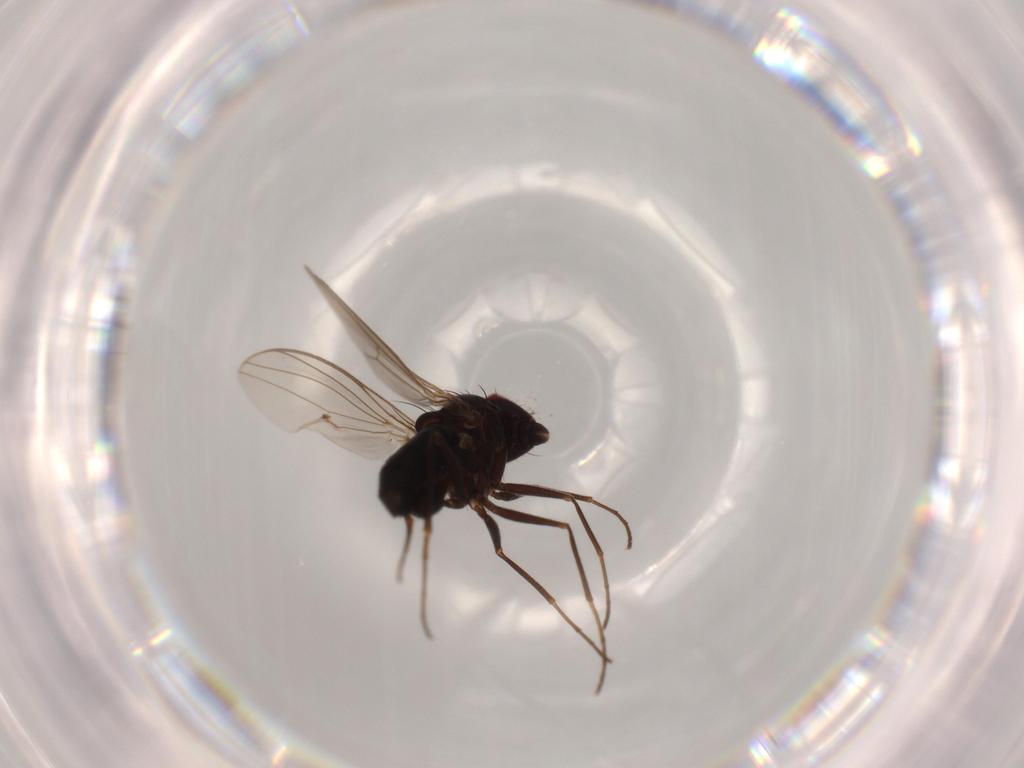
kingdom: Animalia
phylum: Arthropoda
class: Insecta
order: Diptera
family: Dolichopodidae
